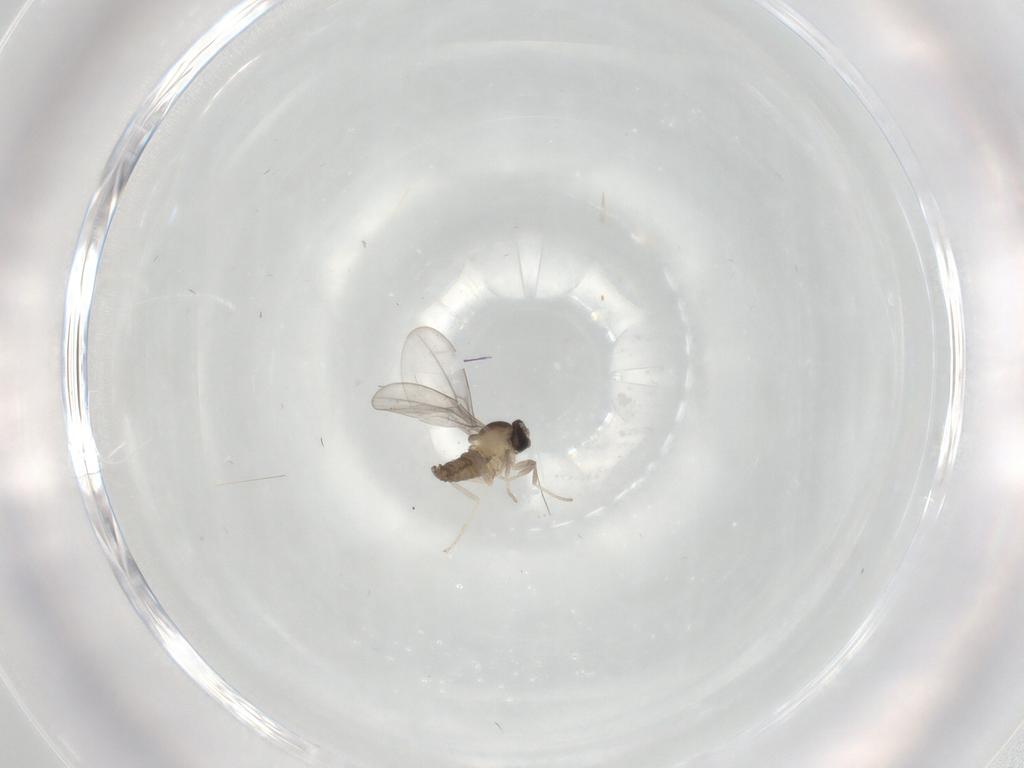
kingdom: Animalia
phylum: Arthropoda
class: Insecta
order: Diptera
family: Cecidomyiidae
